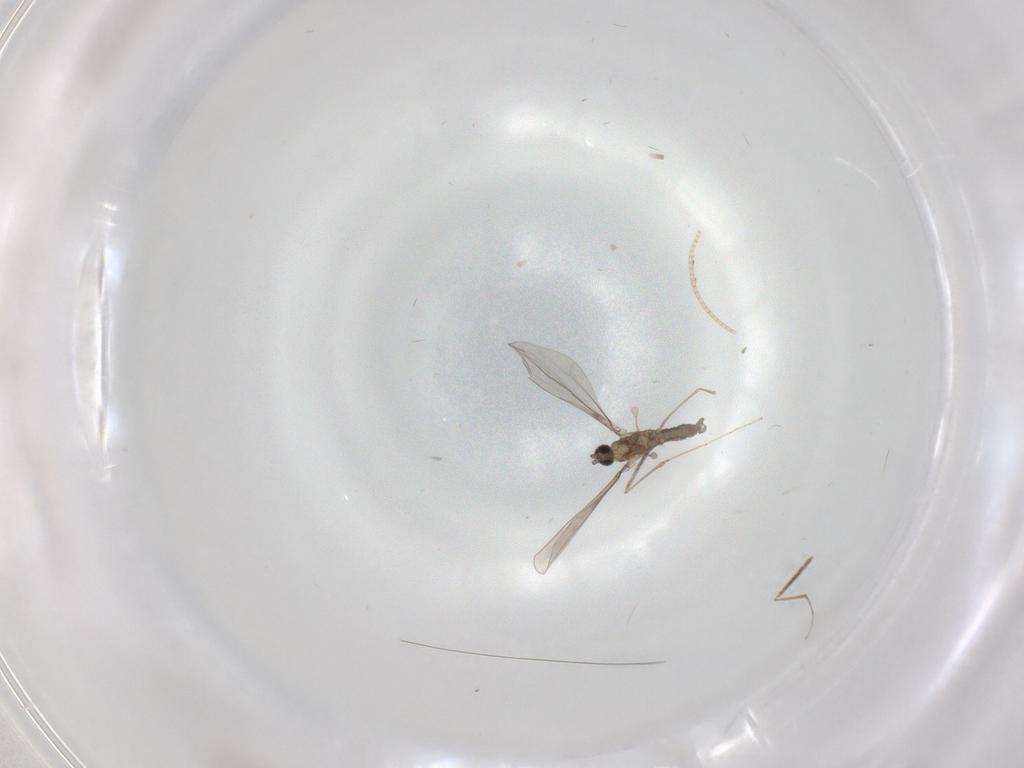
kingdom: Animalia
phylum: Arthropoda
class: Insecta
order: Diptera
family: Cecidomyiidae
